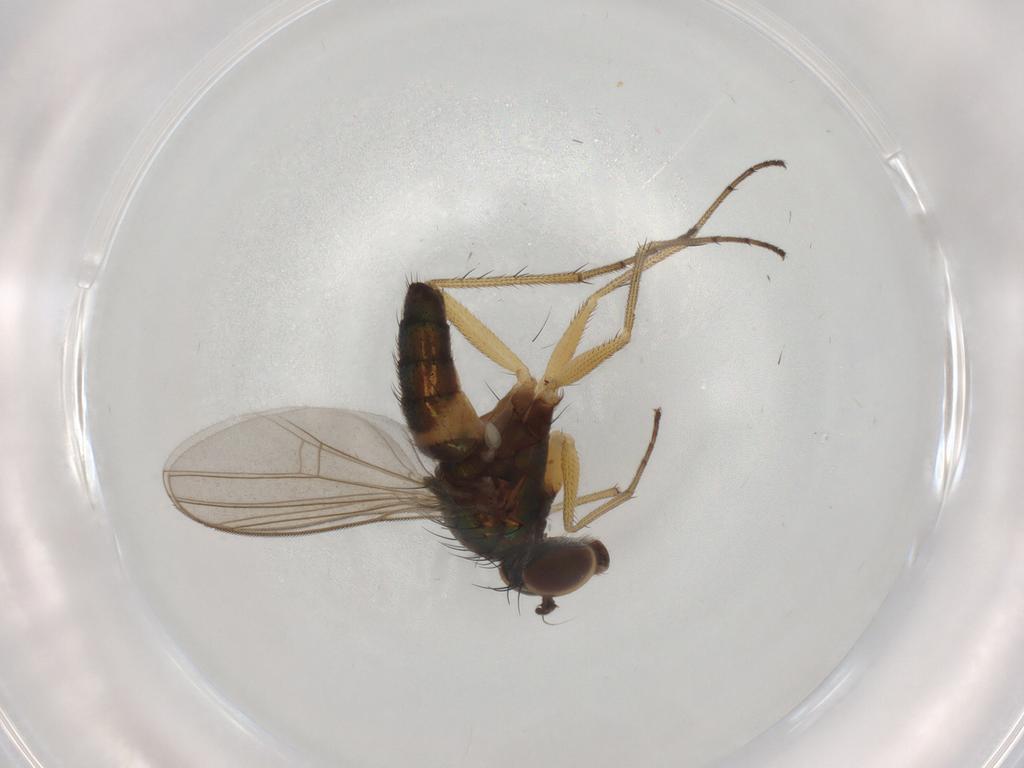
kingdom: Animalia
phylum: Arthropoda
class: Insecta
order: Diptera
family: Dolichopodidae
